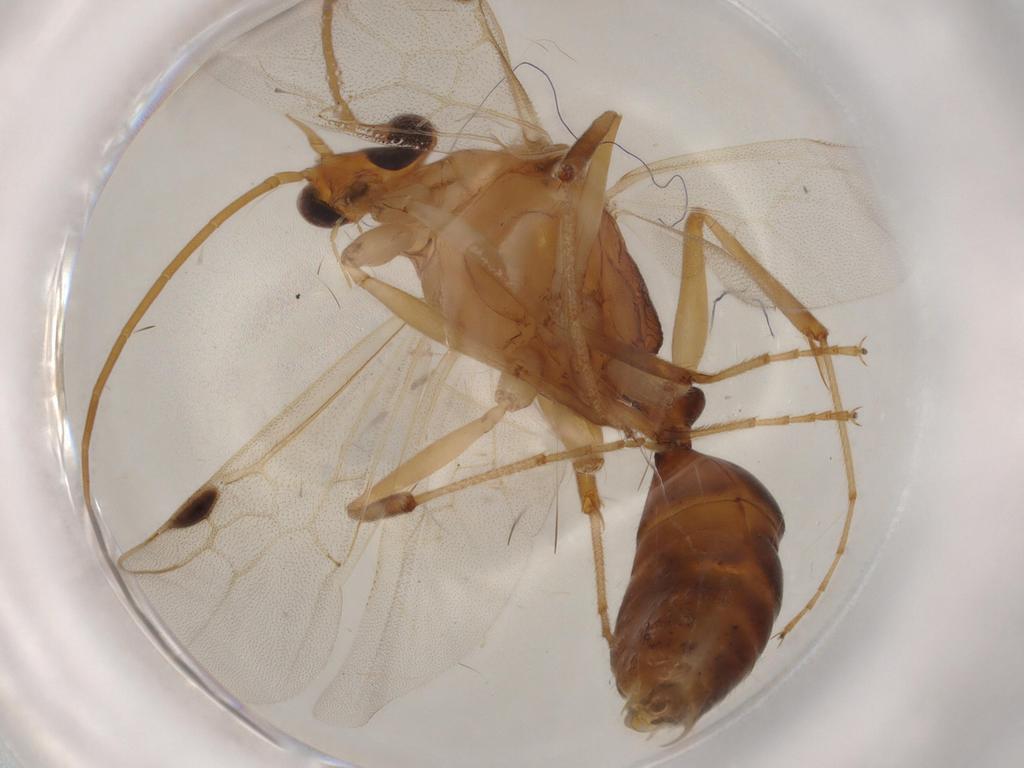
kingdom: Animalia
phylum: Arthropoda
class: Insecta
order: Hymenoptera
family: Formicidae
